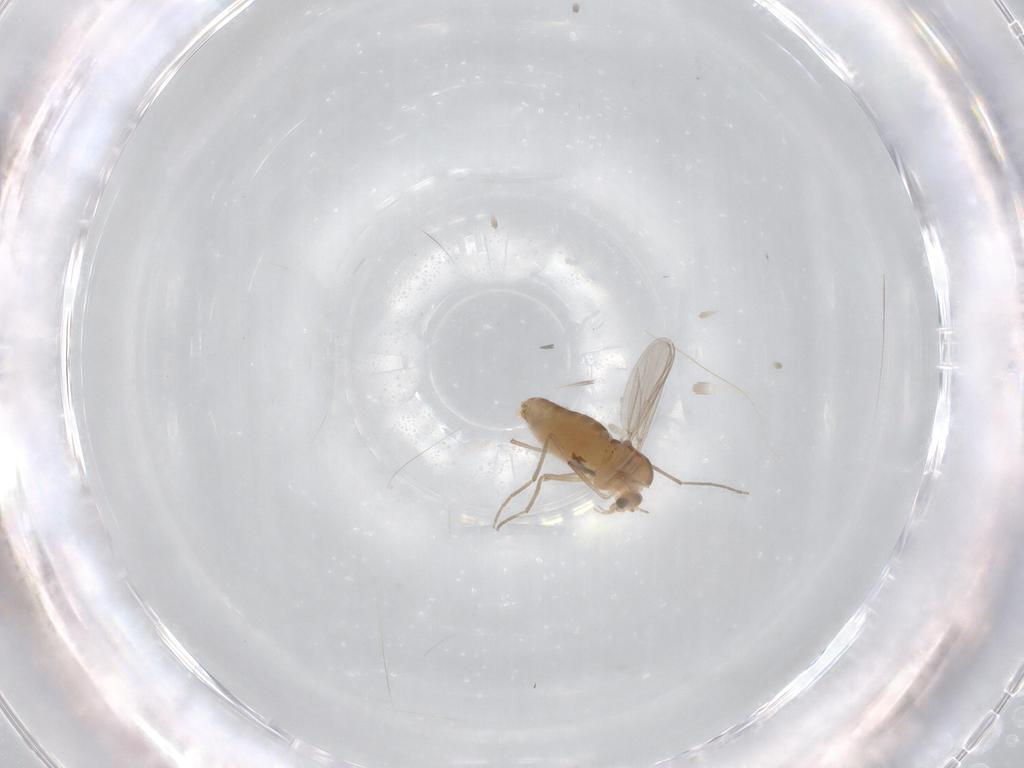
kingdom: Animalia
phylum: Arthropoda
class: Insecta
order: Diptera
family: Chironomidae
